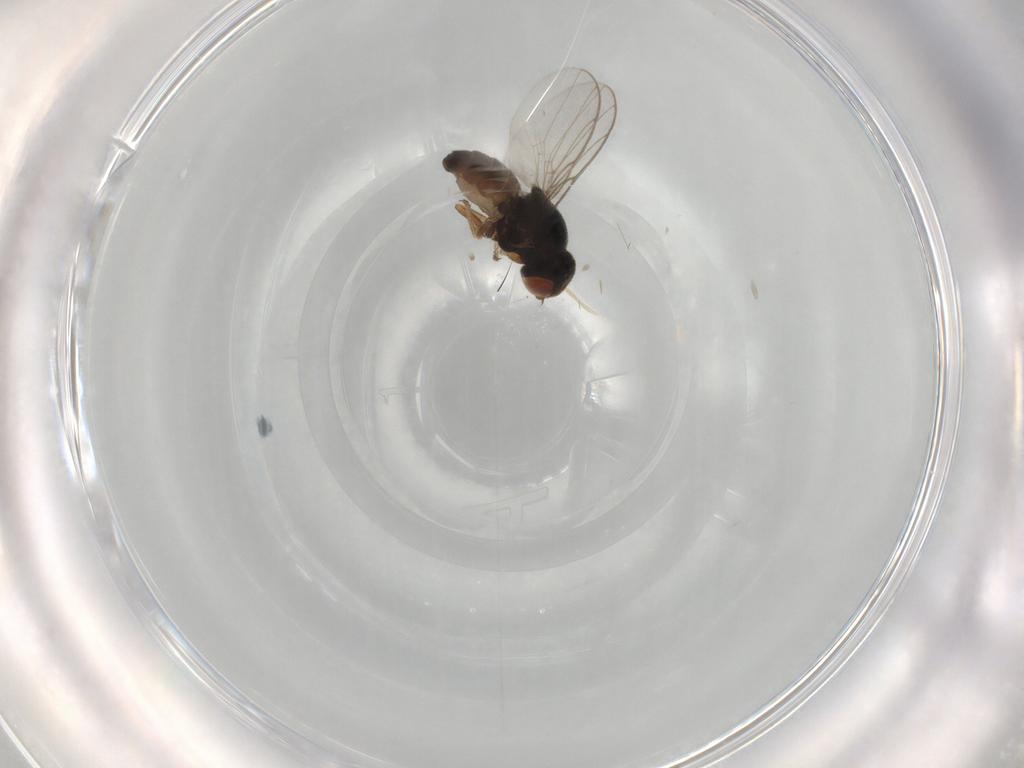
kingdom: Animalia
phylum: Arthropoda
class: Insecta
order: Diptera
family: Chloropidae
